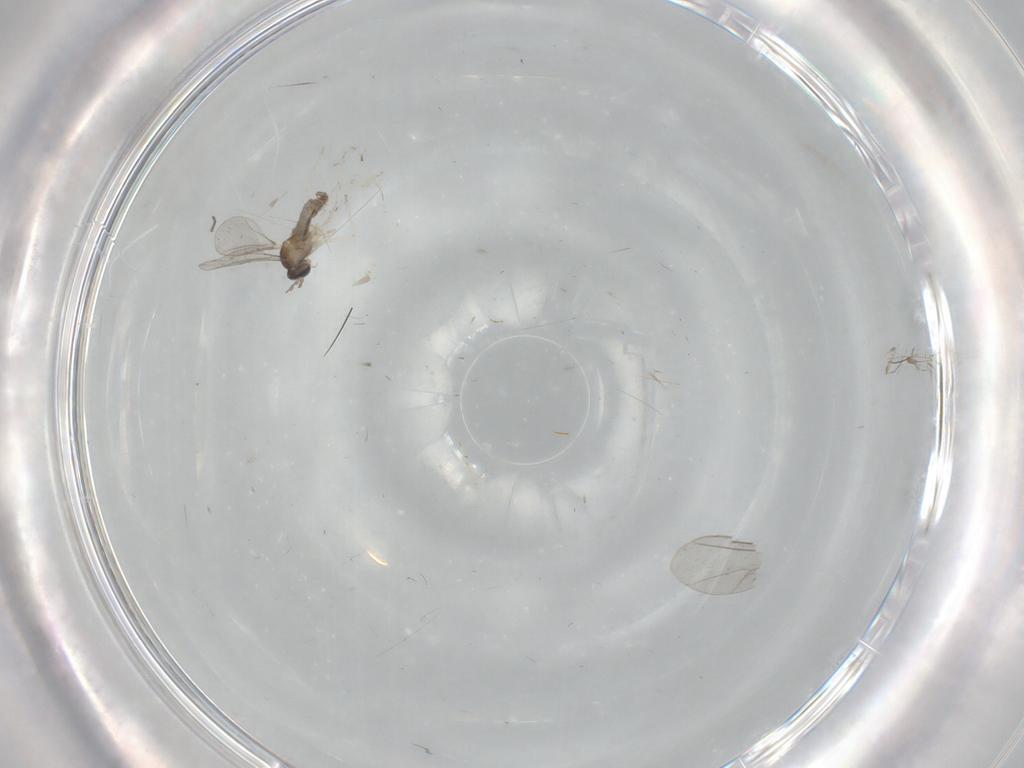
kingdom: Animalia
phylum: Arthropoda
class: Insecta
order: Diptera
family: Cecidomyiidae
